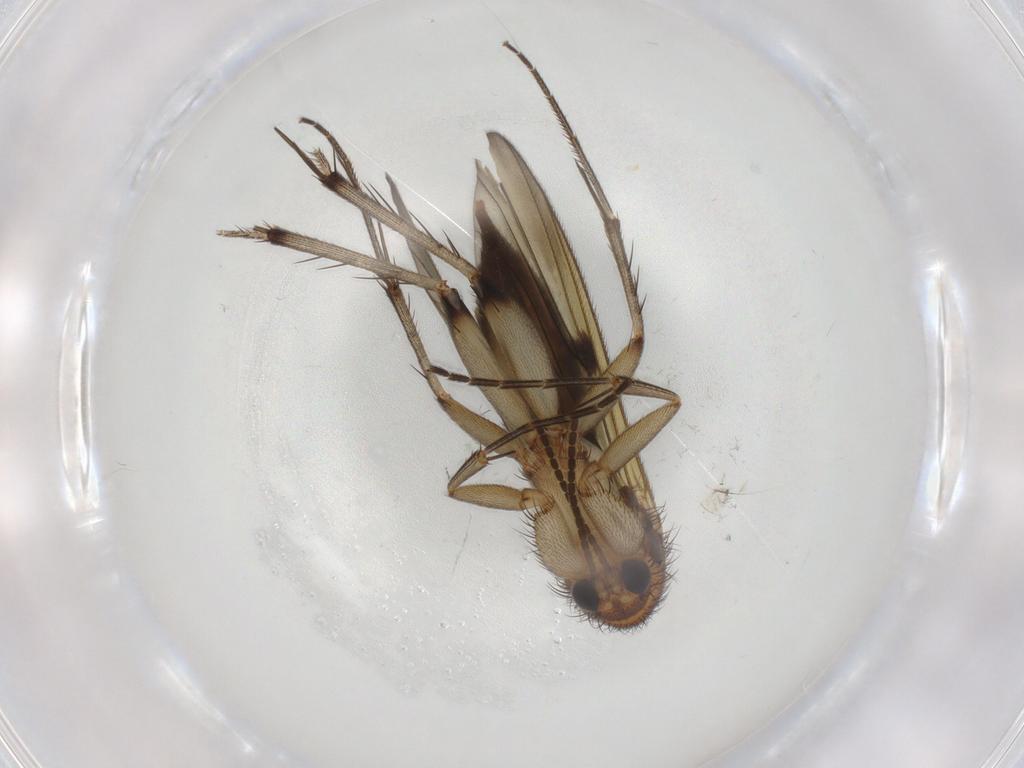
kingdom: Animalia
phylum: Arthropoda
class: Insecta
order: Diptera
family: Mycetophilidae
